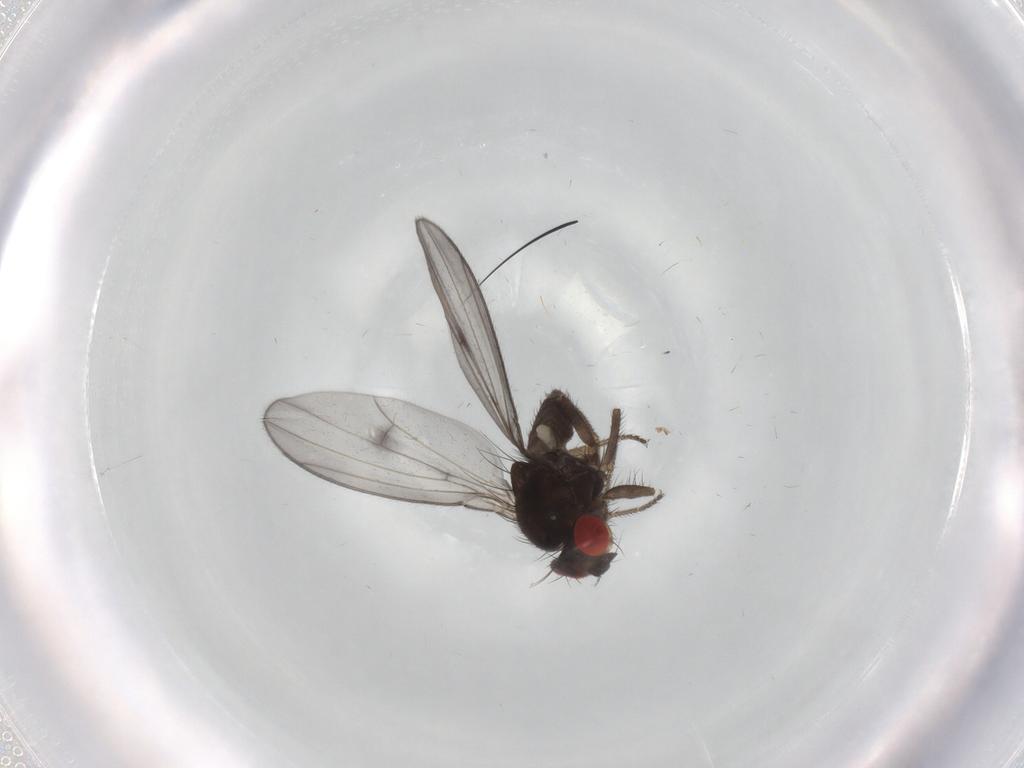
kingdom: Animalia
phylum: Arthropoda
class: Insecta
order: Diptera
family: Drosophilidae
